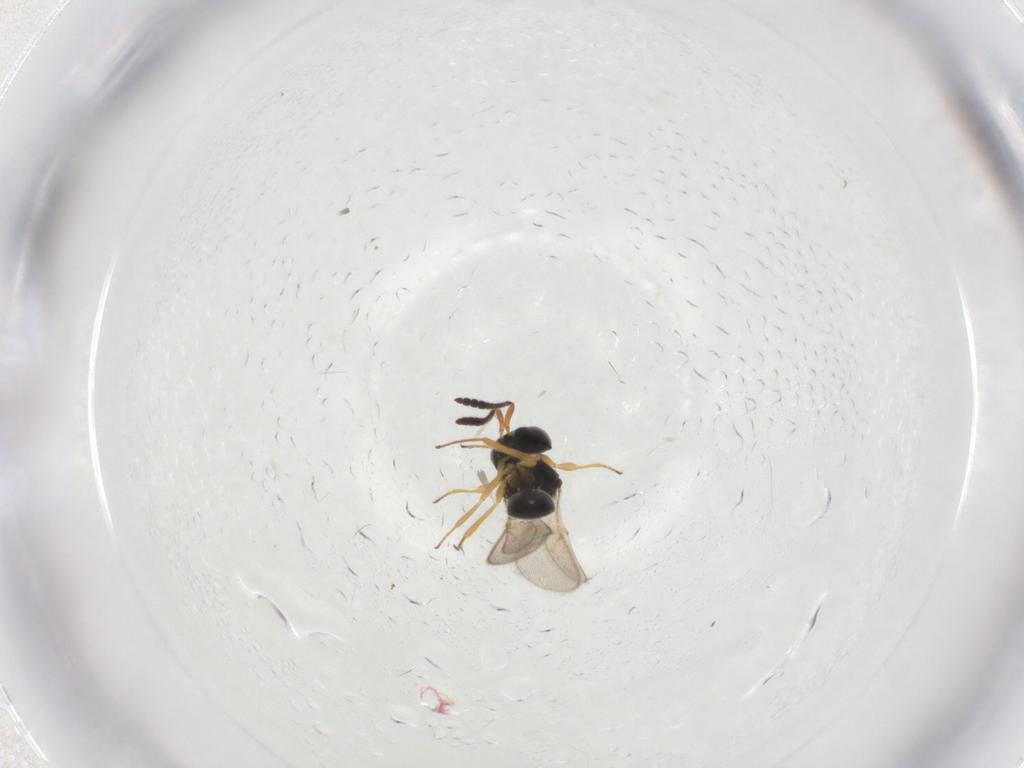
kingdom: Animalia
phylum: Arthropoda
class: Insecta
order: Hymenoptera
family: Scelionidae
